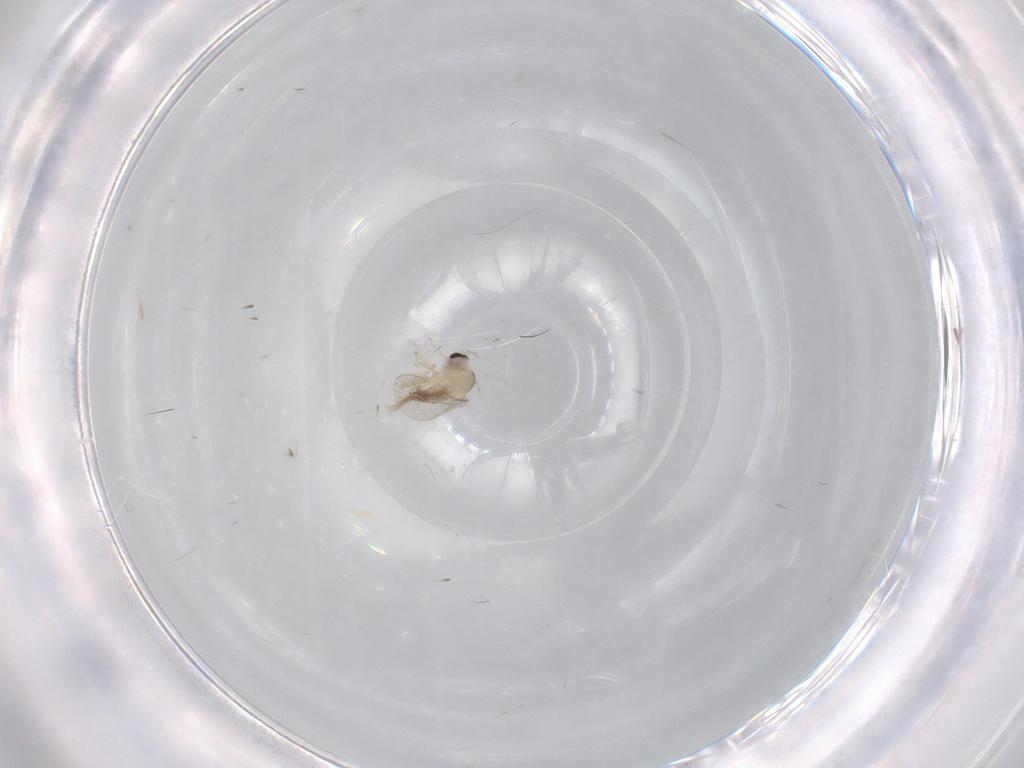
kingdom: Animalia
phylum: Arthropoda
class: Insecta
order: Diptera
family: Cecidomyiidae
